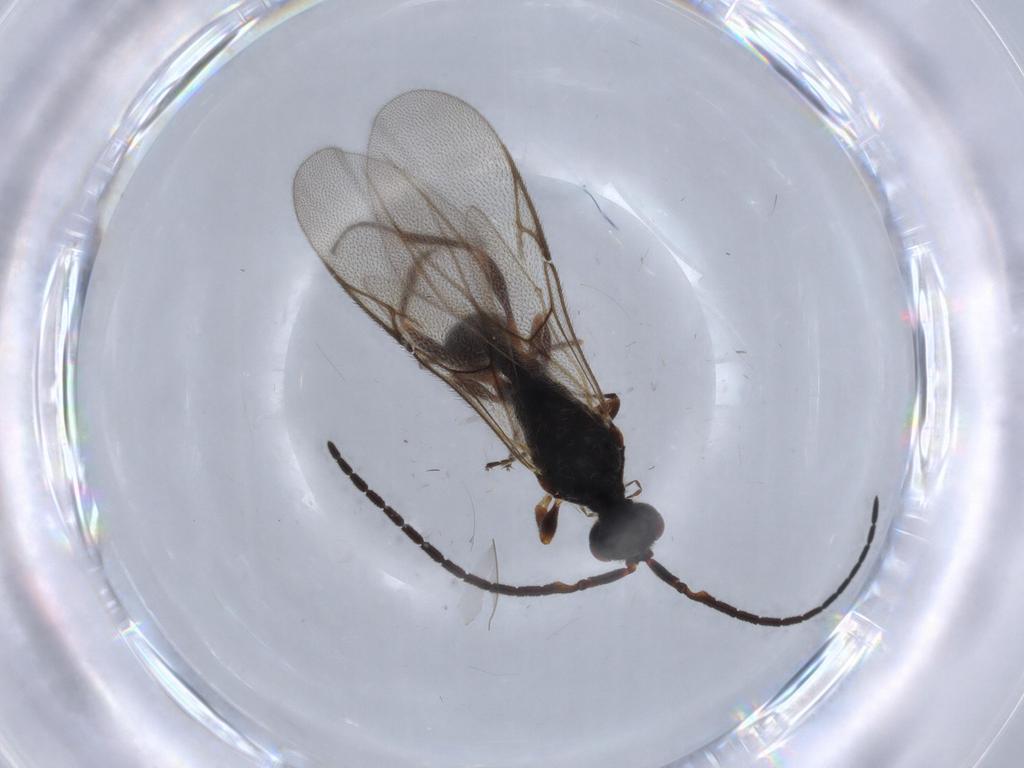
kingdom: Animalia
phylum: Arthropoda
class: Insecta
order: Hymenoptera
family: Ichneumonidae
